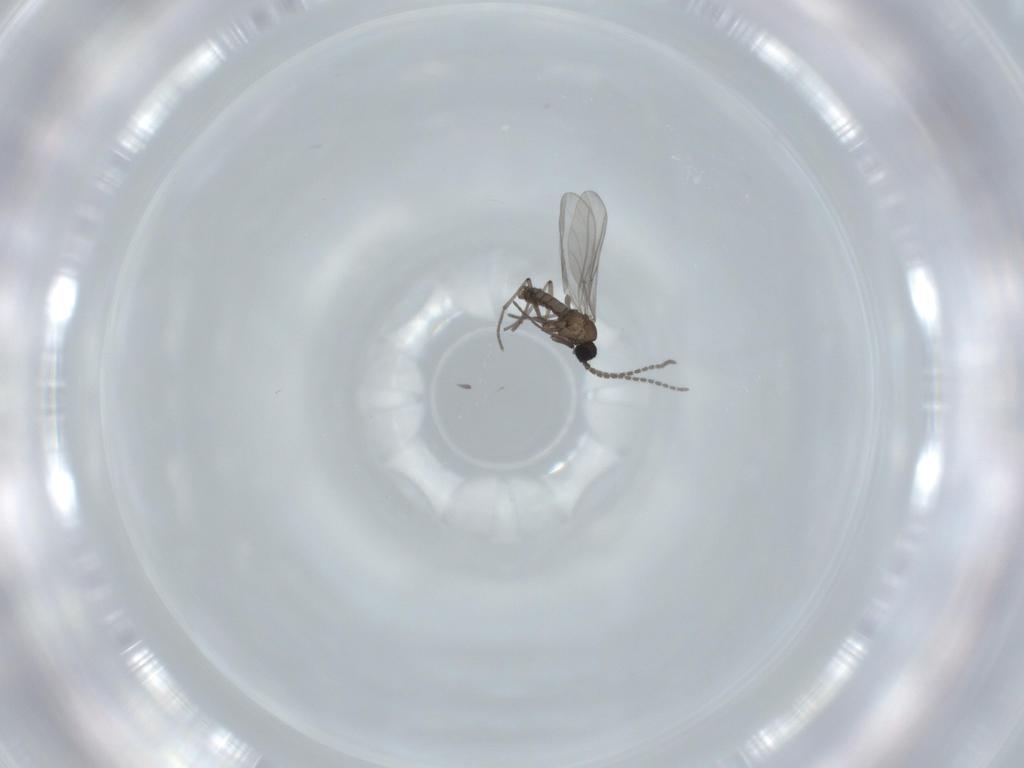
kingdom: Animalia
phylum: Arthropoda
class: Insecta
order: Diptera
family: Sciaridae
